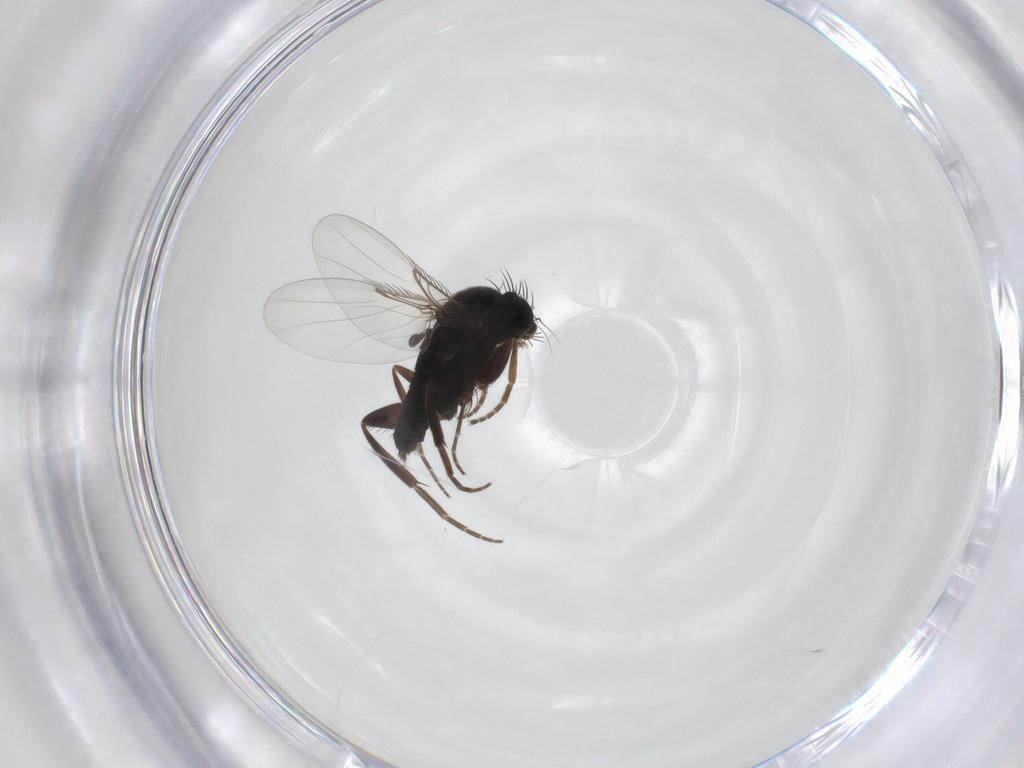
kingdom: Animalia
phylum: Arthropoda
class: Insecta
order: Diptera
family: Phoridae
